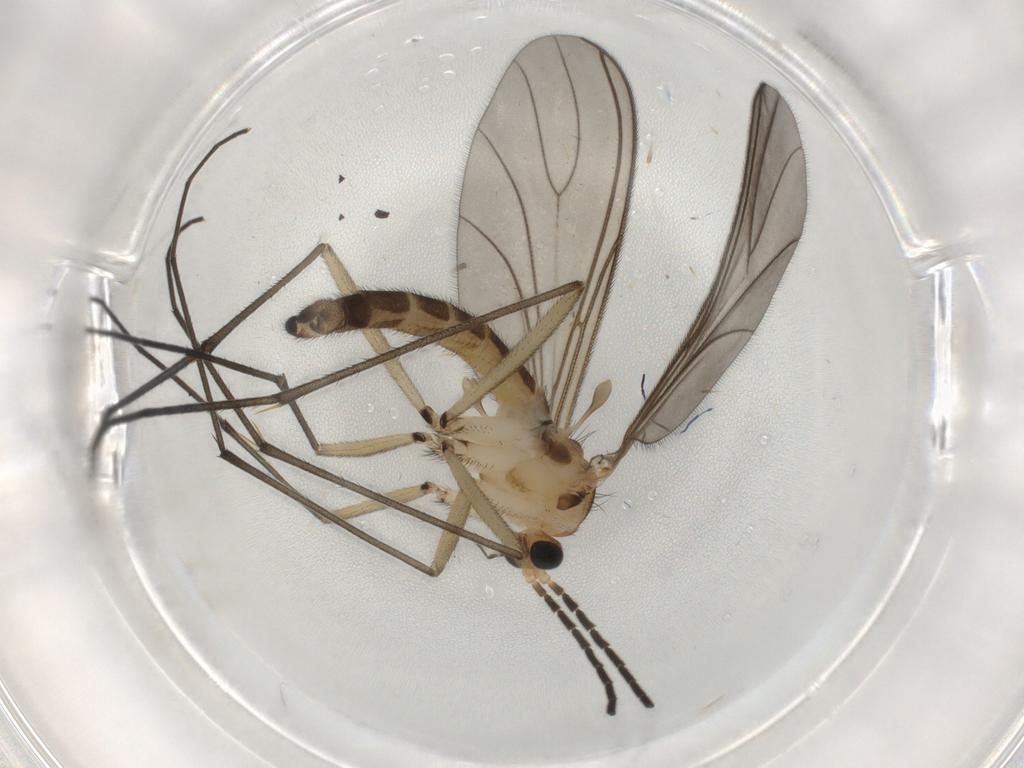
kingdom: Animalia
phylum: Arthropoda
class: Insecta
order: Diptera
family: Sciaridae
